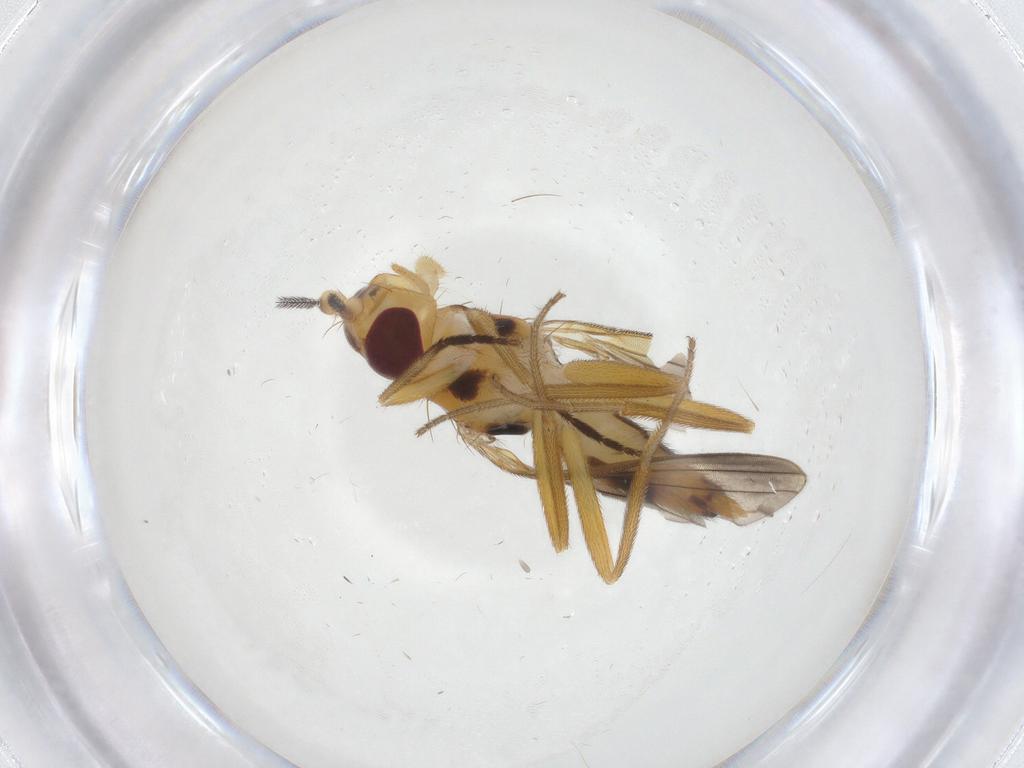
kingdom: Animalia
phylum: Arthropoda
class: Insecta
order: Diptera
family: Clusiidae
